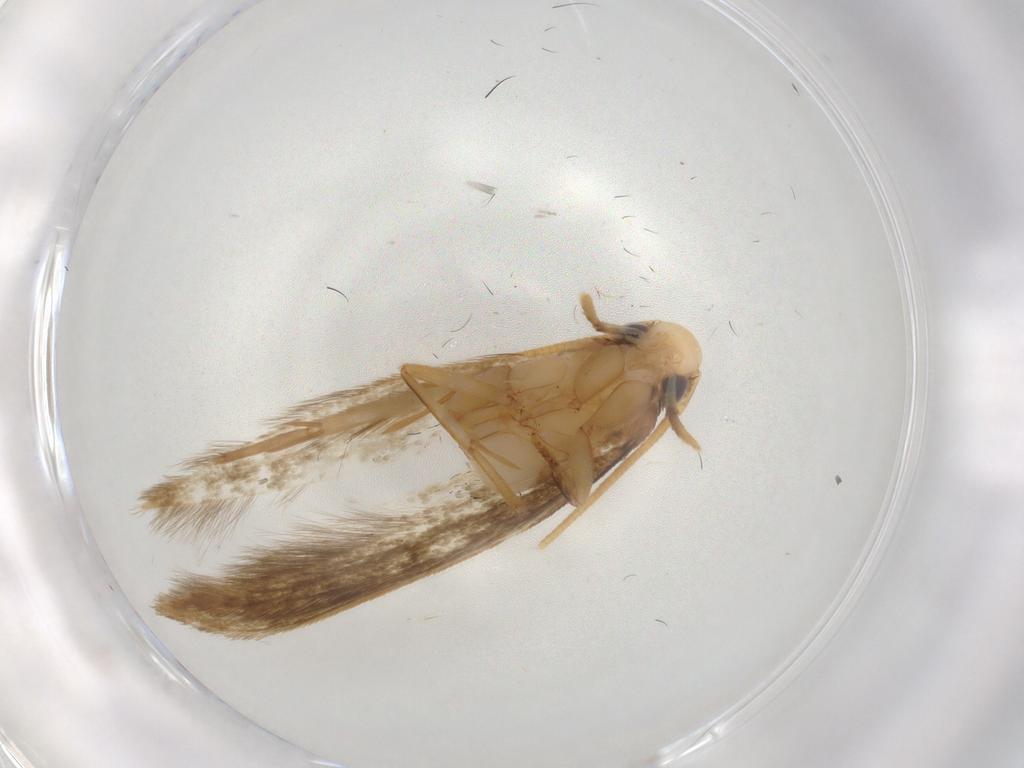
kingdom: Animalia
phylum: Arthropoda
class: Insecta
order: Lepidoptera
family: Tineidae
